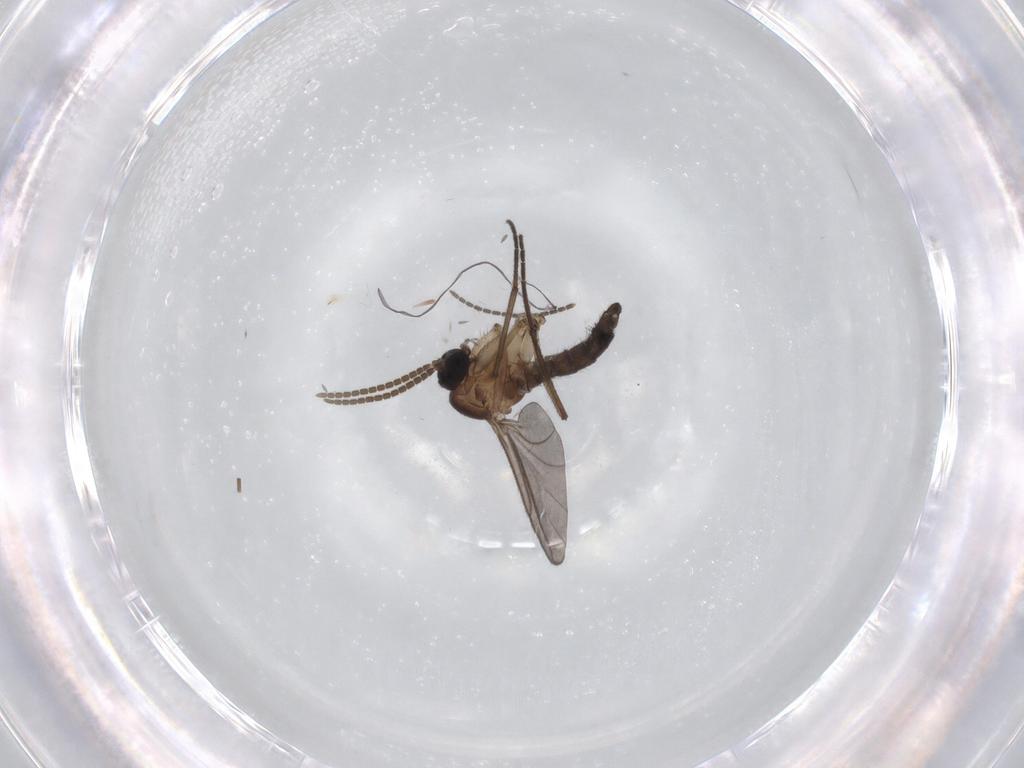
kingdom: Animalia
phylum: Arthropoda
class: Insecta
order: Diptera
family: Sciaridae
